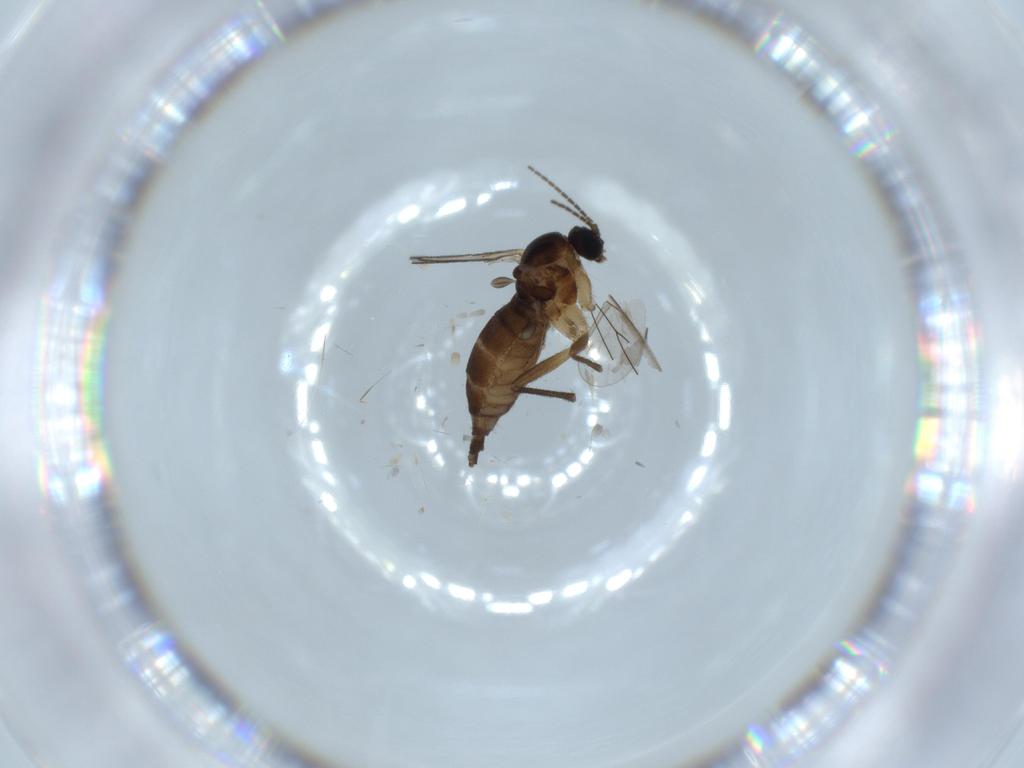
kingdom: Animalia
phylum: Arthropoda
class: Insecta
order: Diptera
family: Sciaridae
